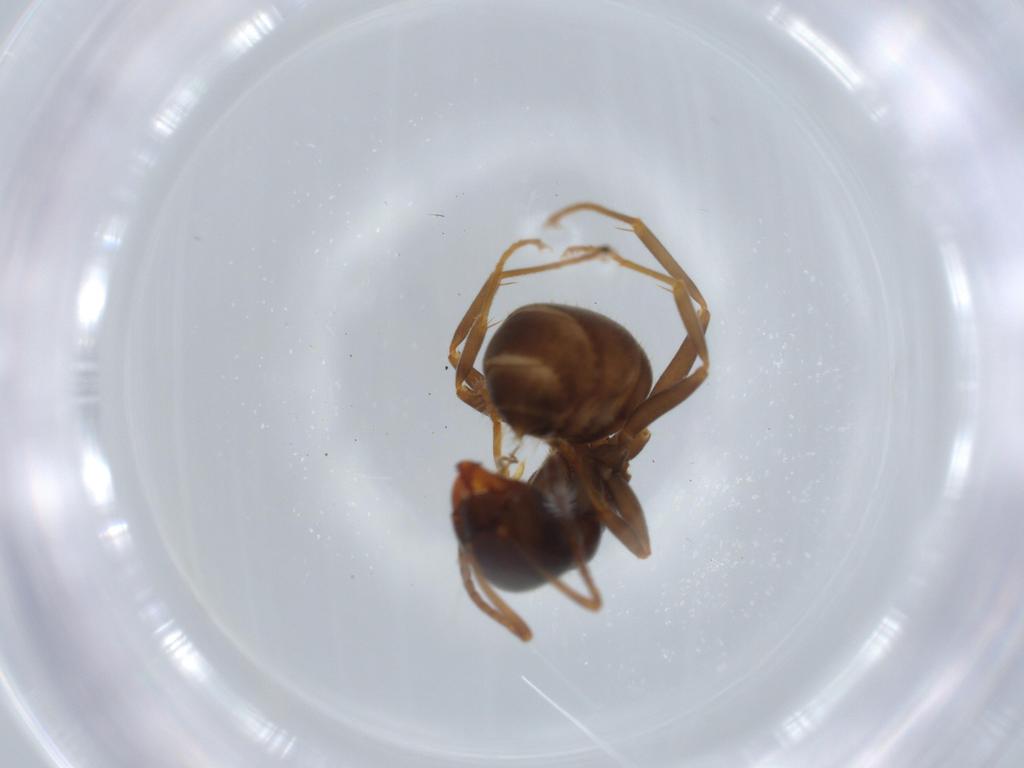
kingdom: Animalia
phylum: Arthropoda
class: Insecta
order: Hymenoptera
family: Formicidae
